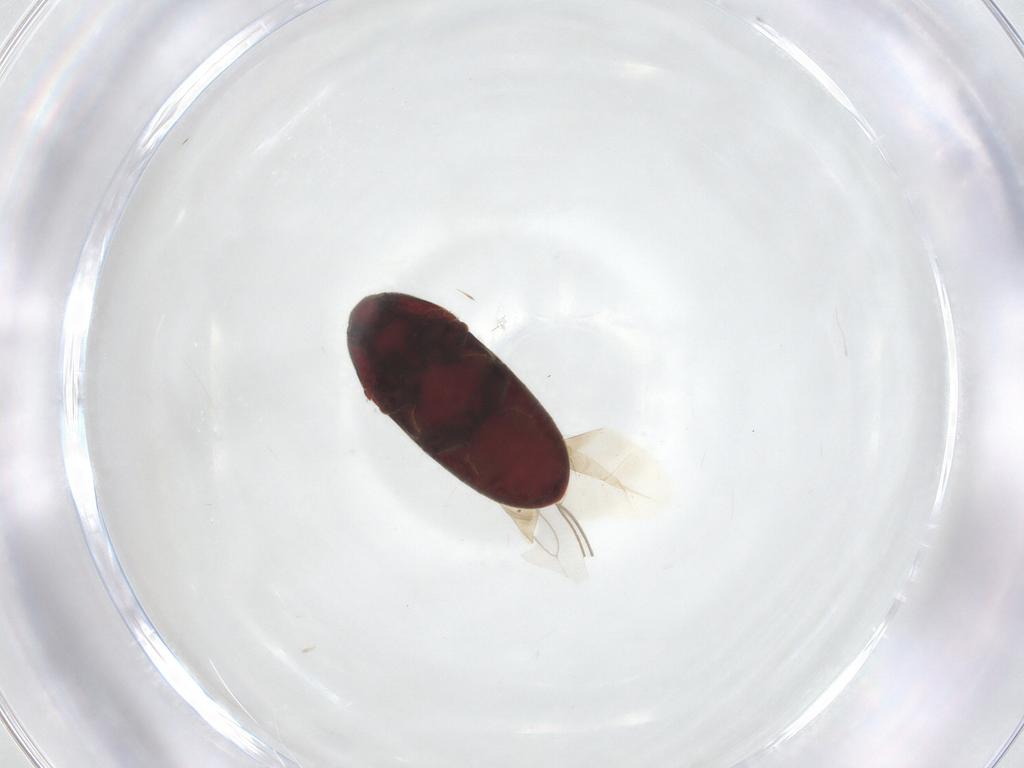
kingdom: Animalia
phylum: Arthropoda
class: Insecta
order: Coleoptera
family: Throscidae
